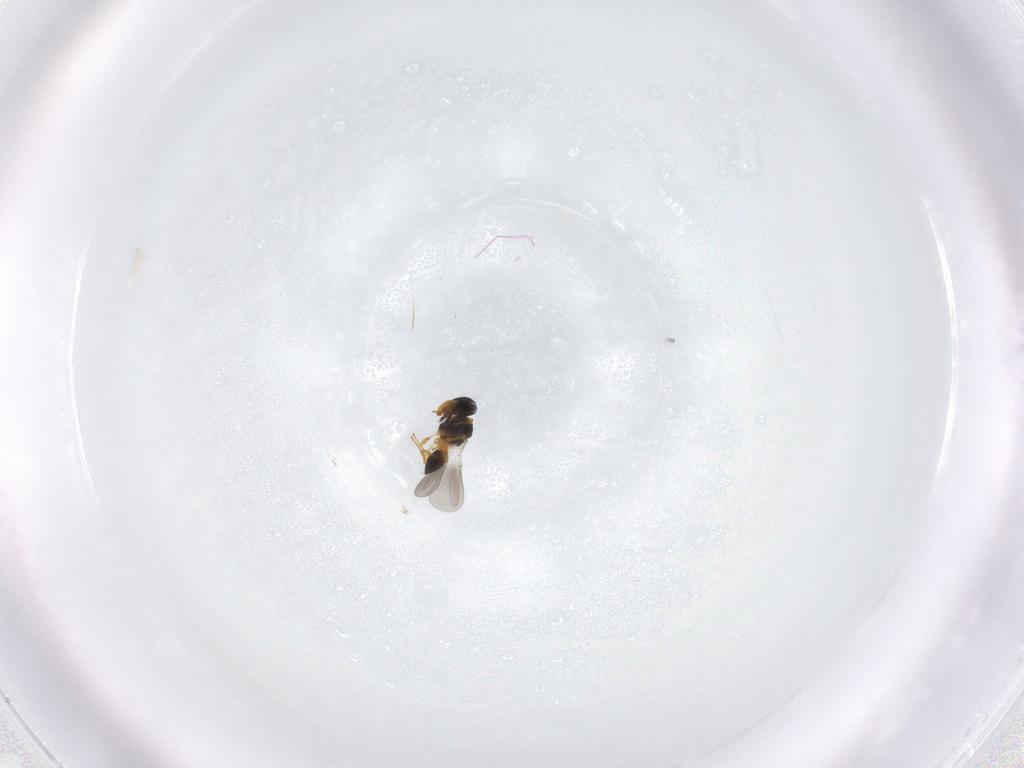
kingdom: Animalia
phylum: Arthropoda
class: Insecta
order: Hymenoptera
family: Platygastridae
